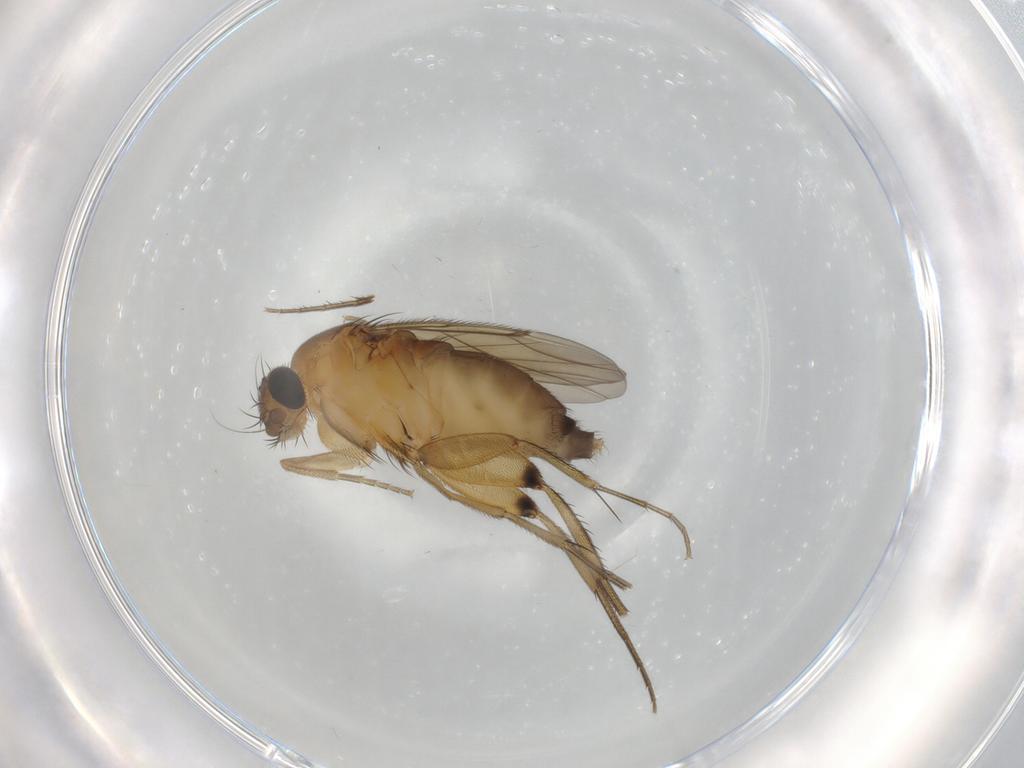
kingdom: Animalia
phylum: Arthropoda
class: Insecta
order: Diptera
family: Phoridae
